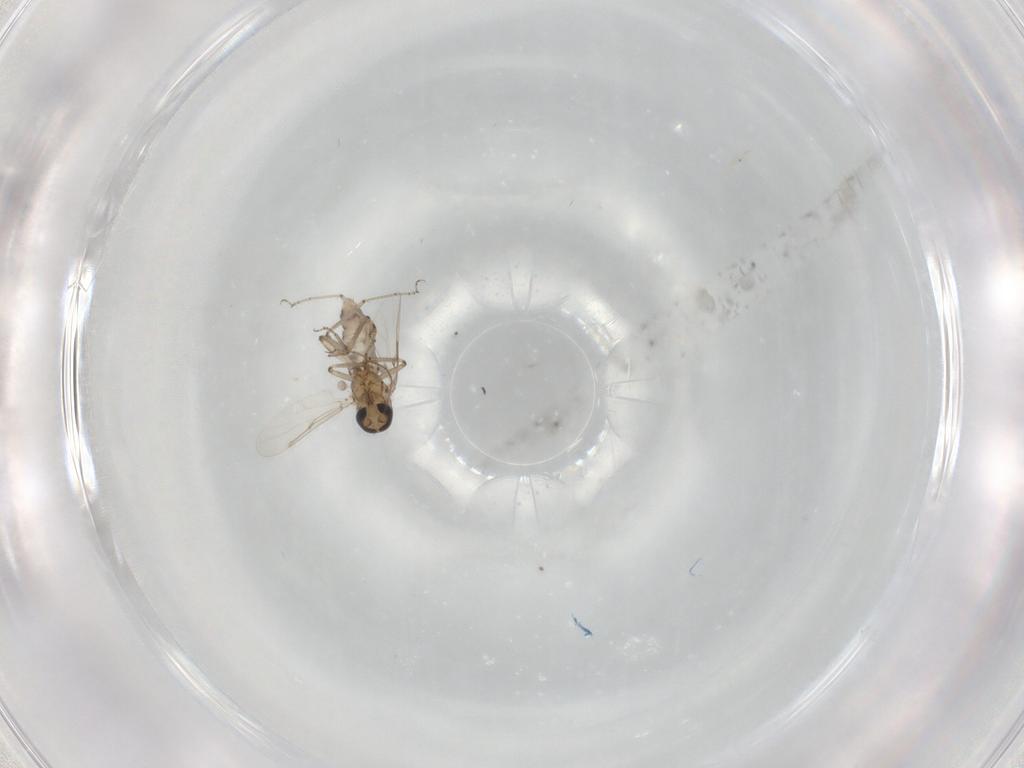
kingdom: Animalia
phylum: Arthropoda
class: Insecta
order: Diptera
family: Ceratopogonidae
